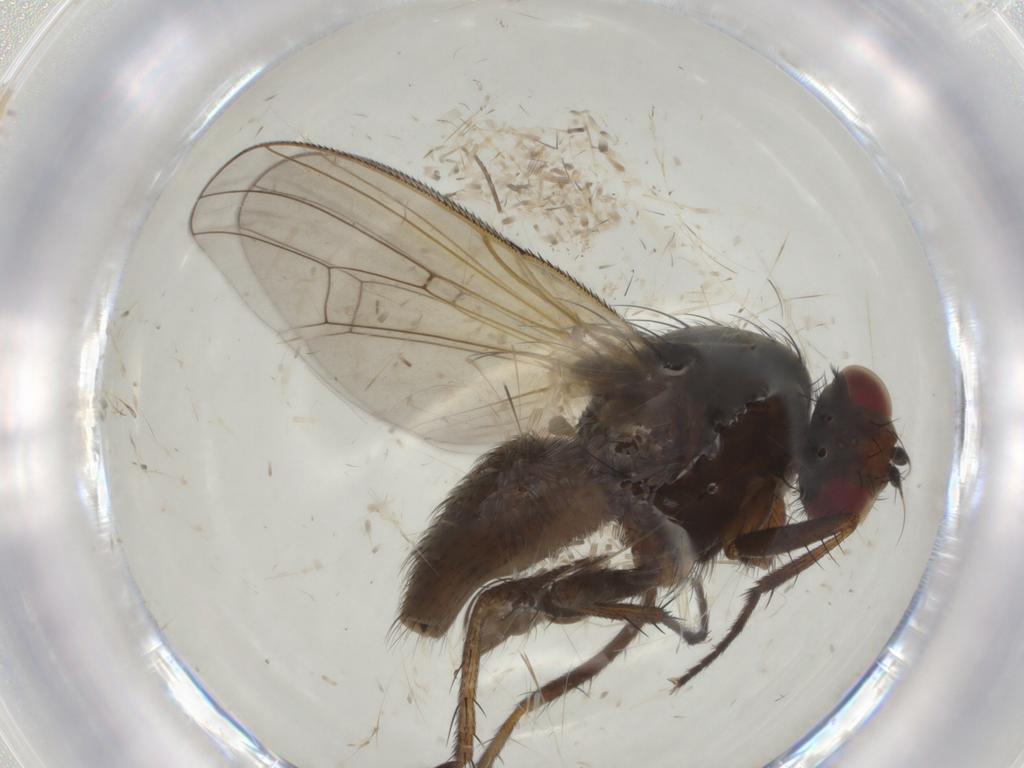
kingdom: Animalia
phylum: Arthropoda
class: Insecta
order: Diptera
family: Anthomyiidae
